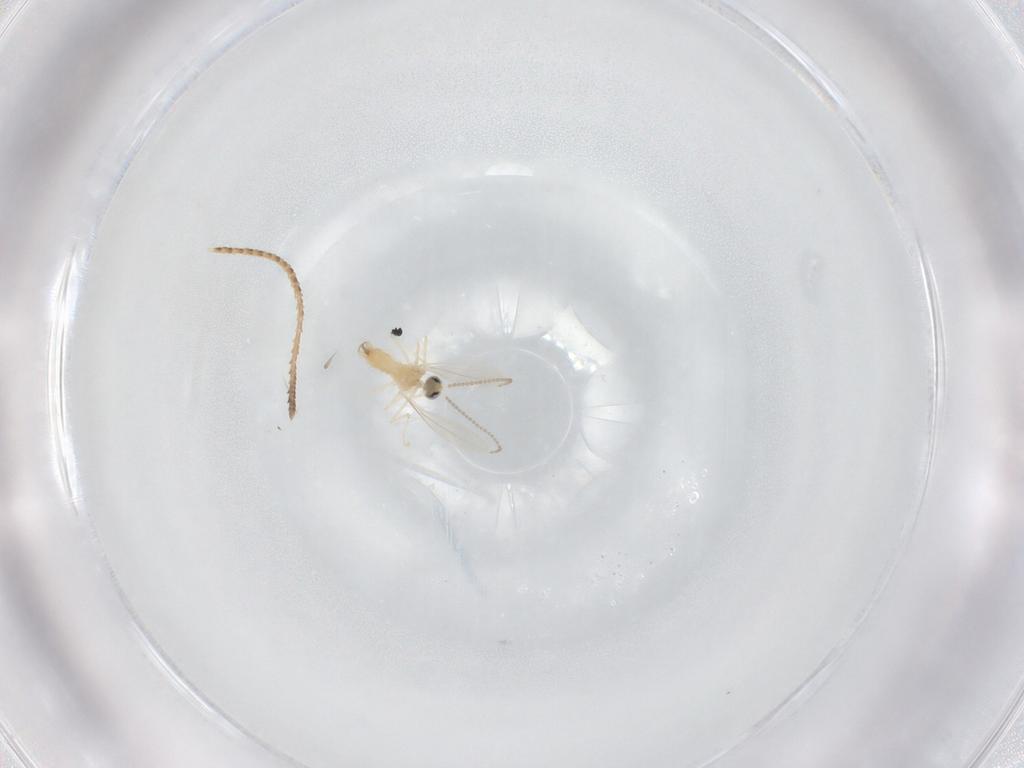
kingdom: Animalia
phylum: Arthropoda
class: Insecta
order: Diptera
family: Cecidomyiidae
